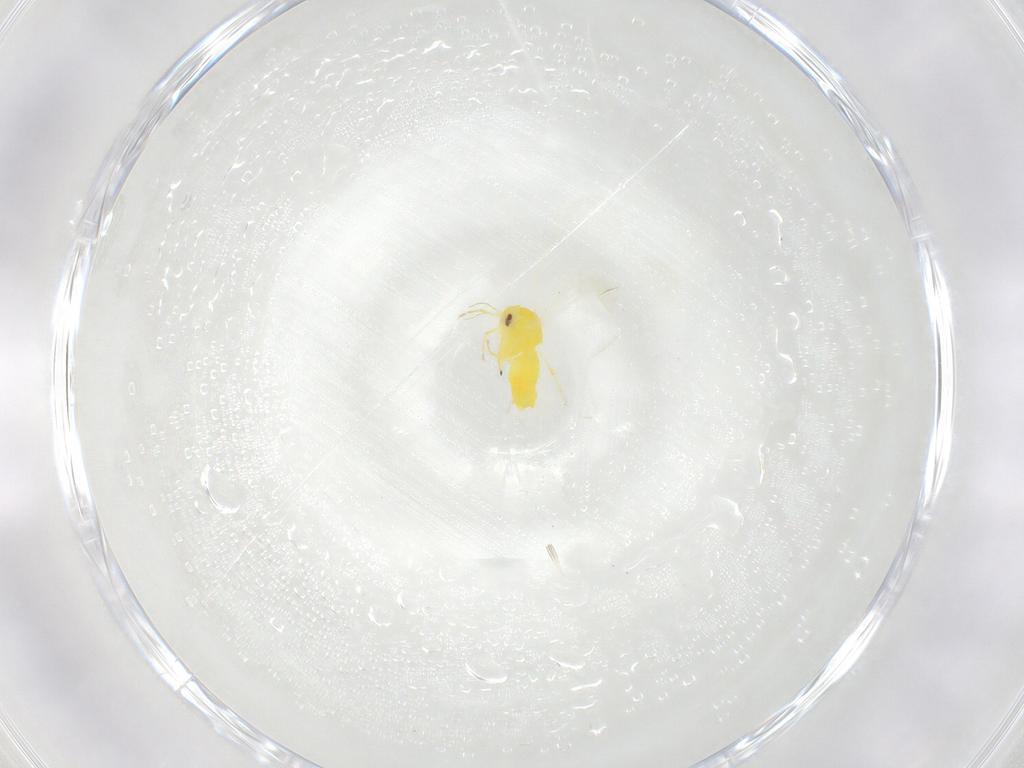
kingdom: Animalia
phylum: Arthropoda
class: Insecta
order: Hemiptera
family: Aleyrodidae
